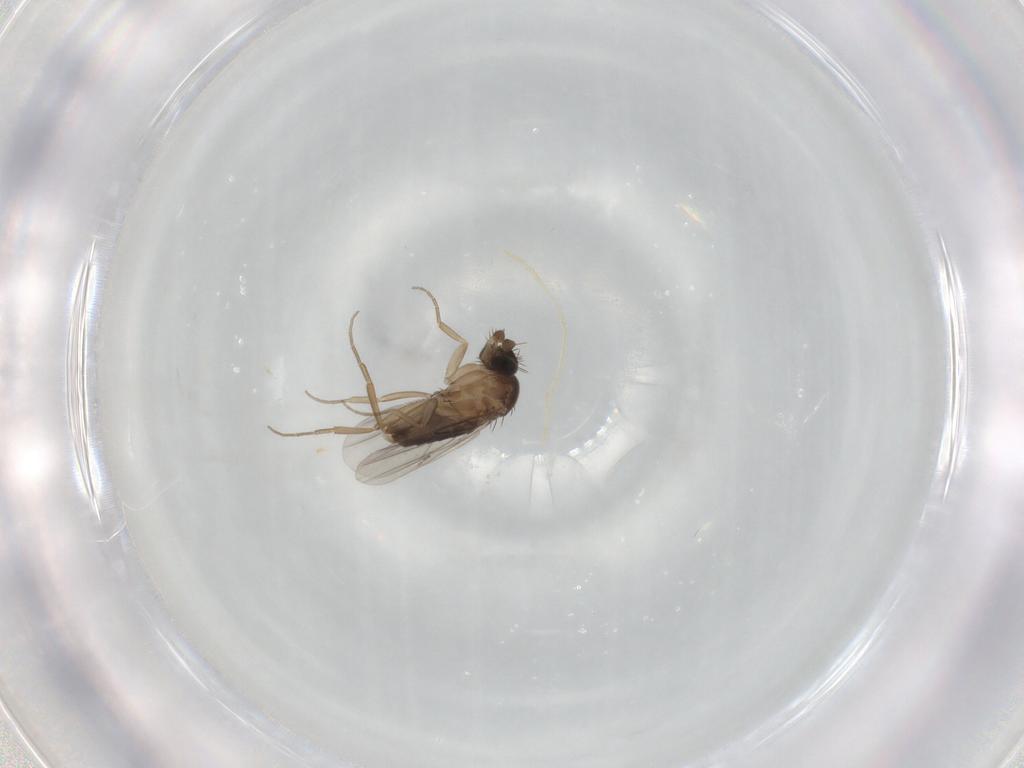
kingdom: Animalia
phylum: Arthropoda
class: Insecta
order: Diptera
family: Phoridae
